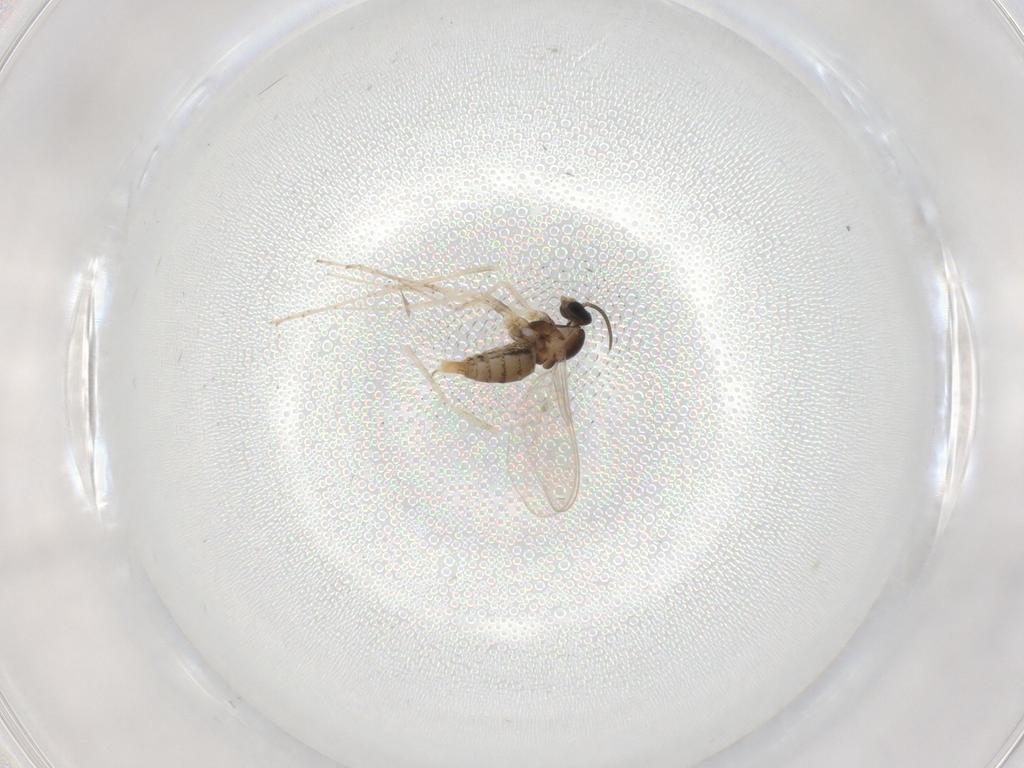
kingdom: Animalia
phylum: Arthropoda
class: Insecta
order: Diptera
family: Cecidomyiidae
